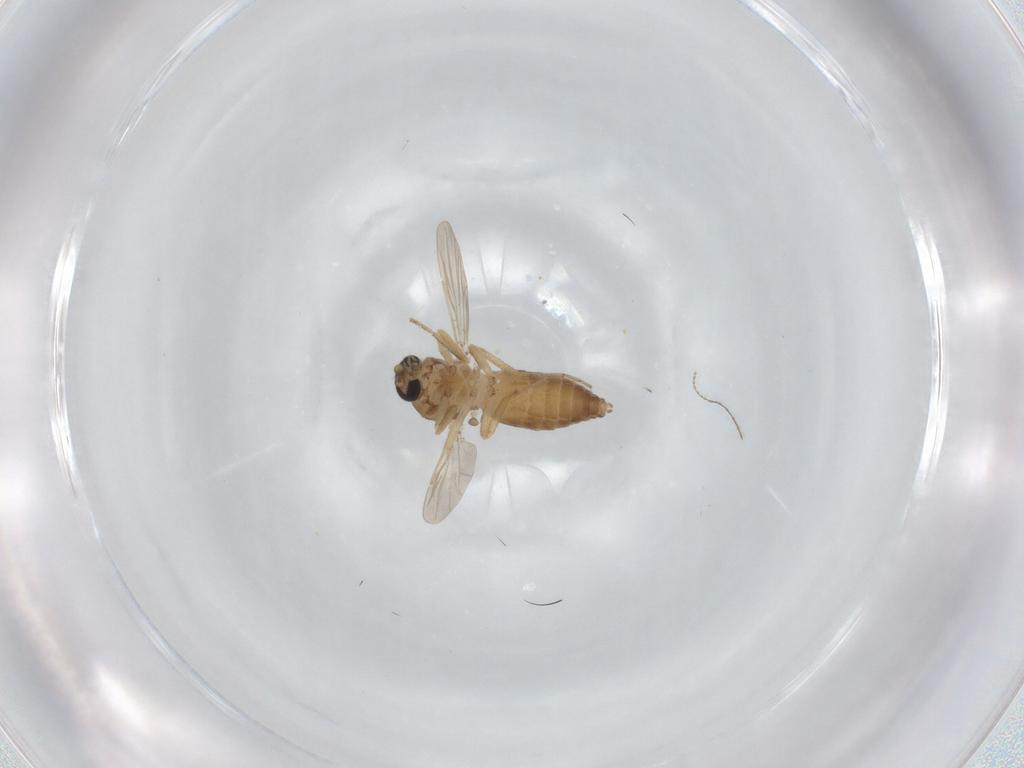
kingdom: Animalia
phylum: Arthropoda
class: Insecta
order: Diptera
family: Ceratopogonidae
